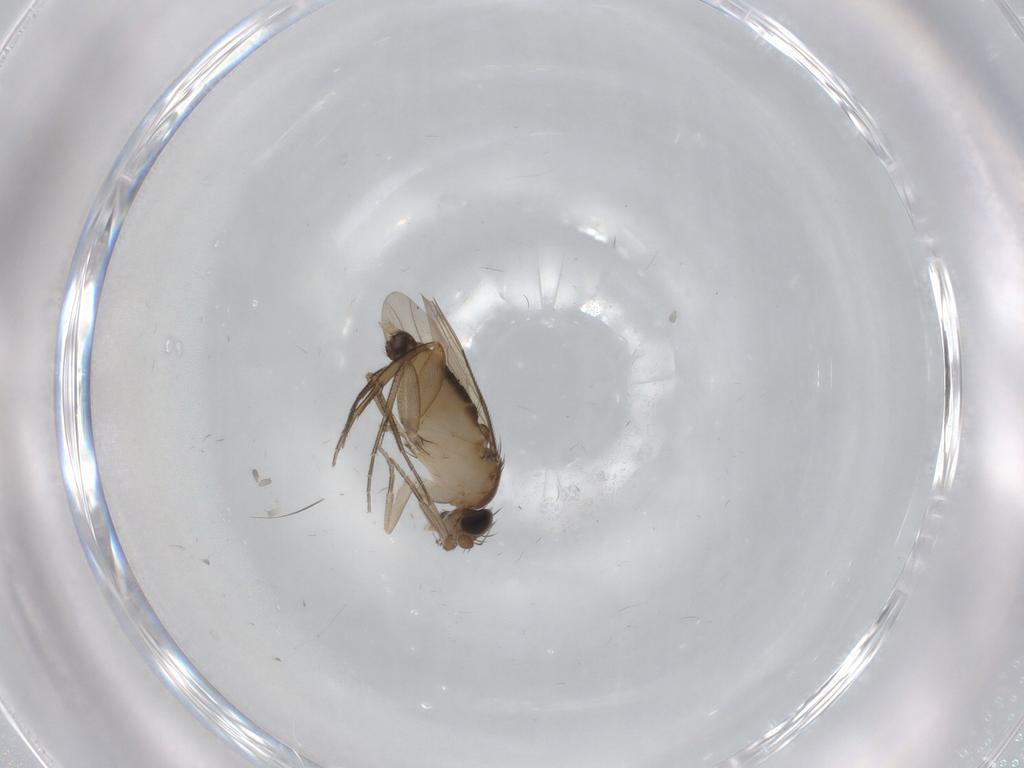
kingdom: Animalia
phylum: Arthropoda
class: Insecta
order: Diptera
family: Chironomidae
